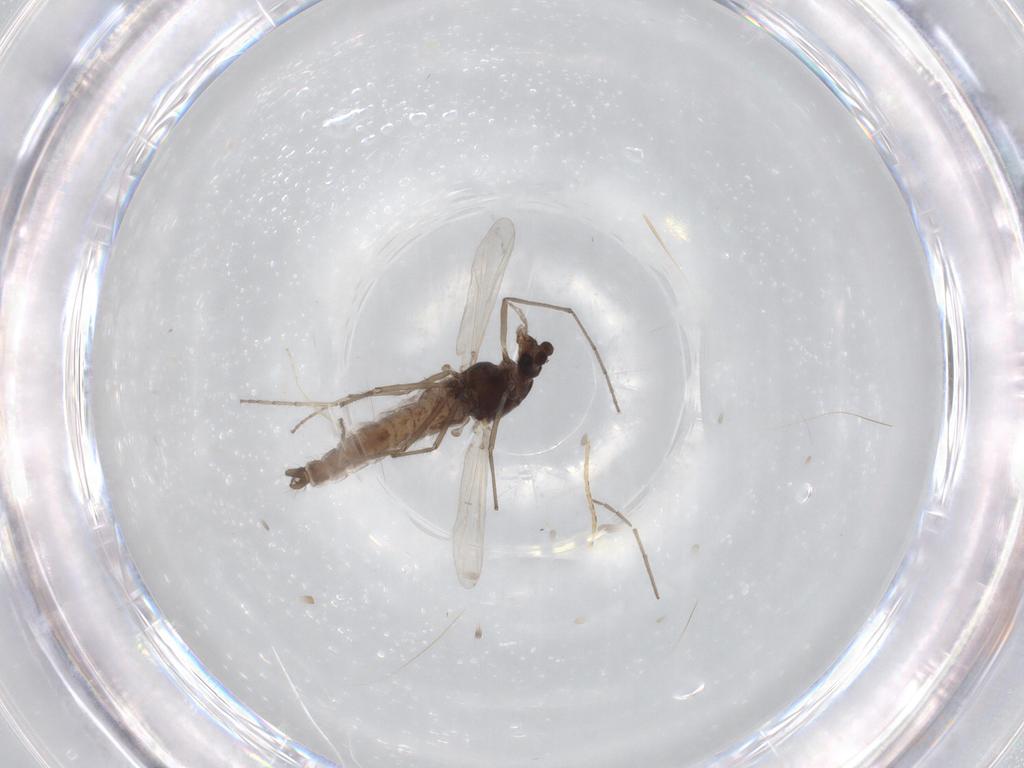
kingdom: Animalia
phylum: Arthropoda
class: Insecta
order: Diptera
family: Chironomidae
